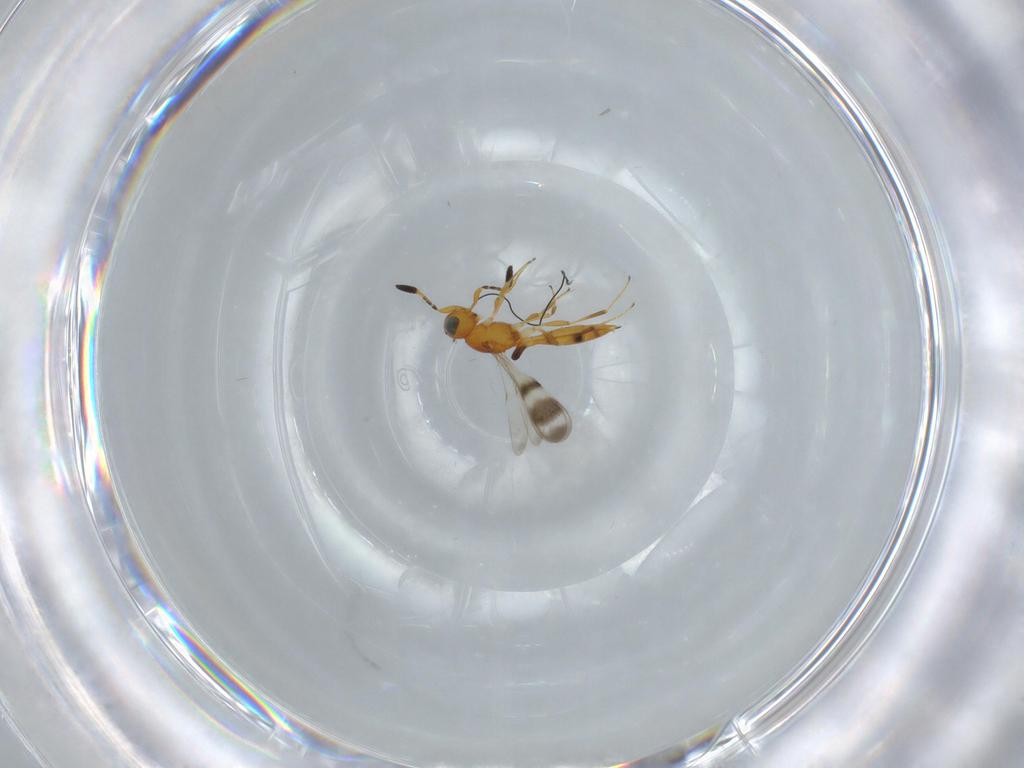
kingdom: Animalia
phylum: Arthropoda
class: Insecta
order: Hymenoptera
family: Scelionidae
